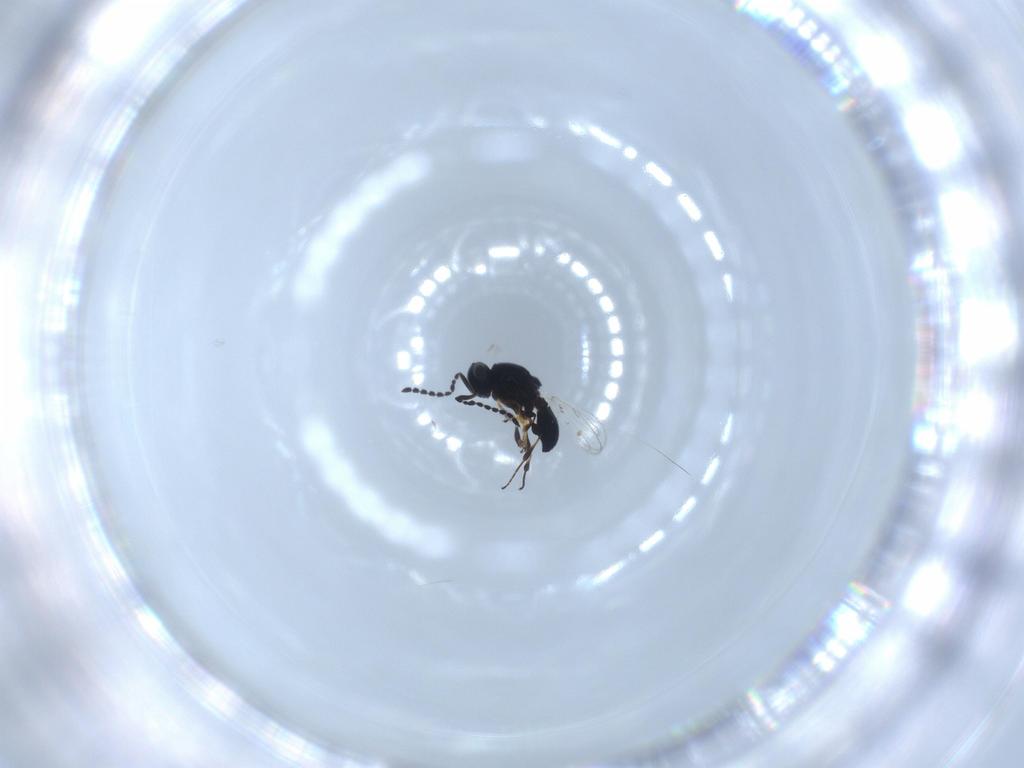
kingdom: Animalia
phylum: Arthropoda
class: Insecta
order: Hymenoptera
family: Platygastridae
